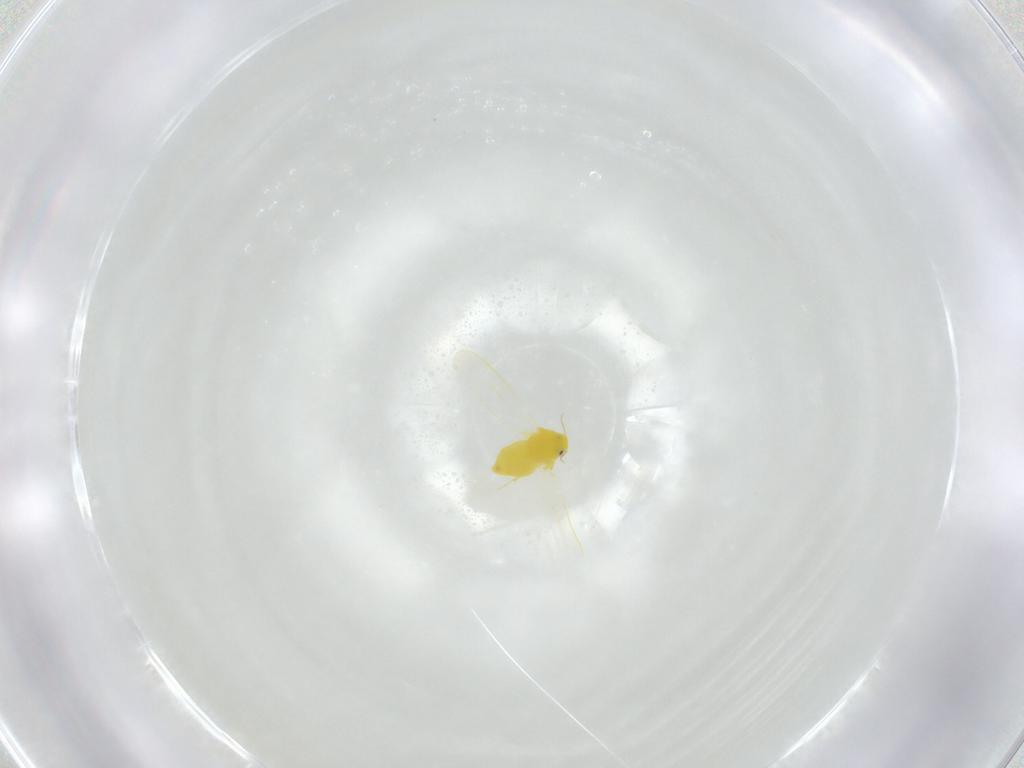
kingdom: Animalia
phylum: Arthropoda
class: Insecta
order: Hemiptera
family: Aleyrodidae
